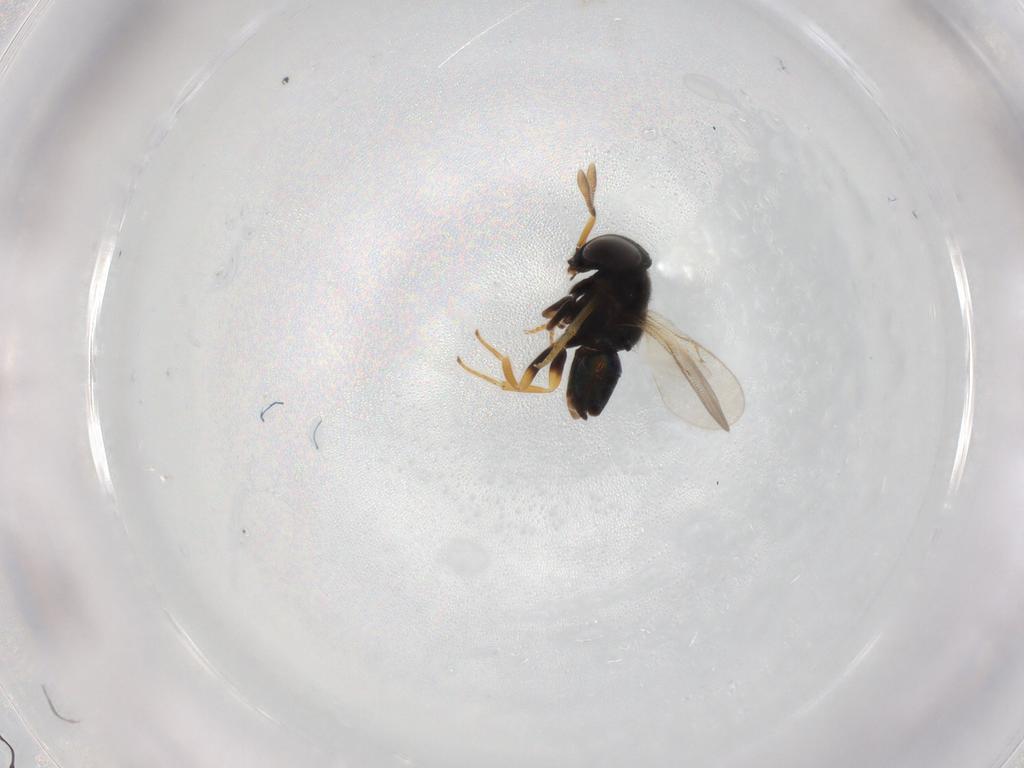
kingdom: Animalia
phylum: Arthropoda
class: Insecta
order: Hymenoptera
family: Encyrtidae
